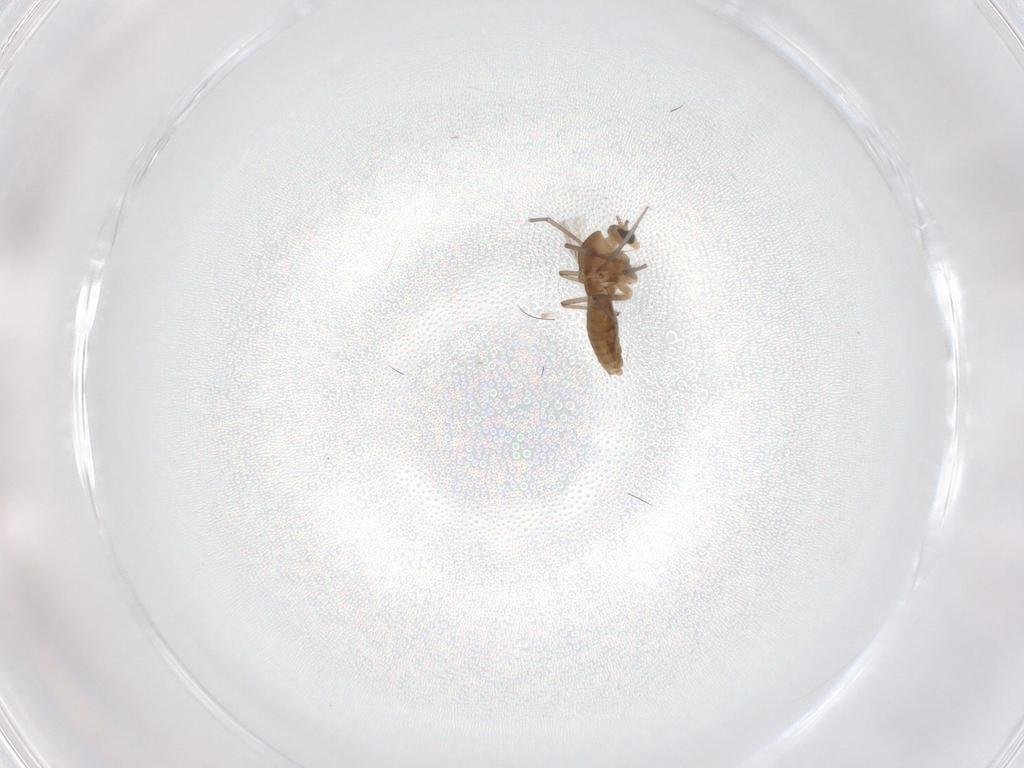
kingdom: Animalia
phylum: Arthropoda
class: Insecta
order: Diptera
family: Chironomidae
